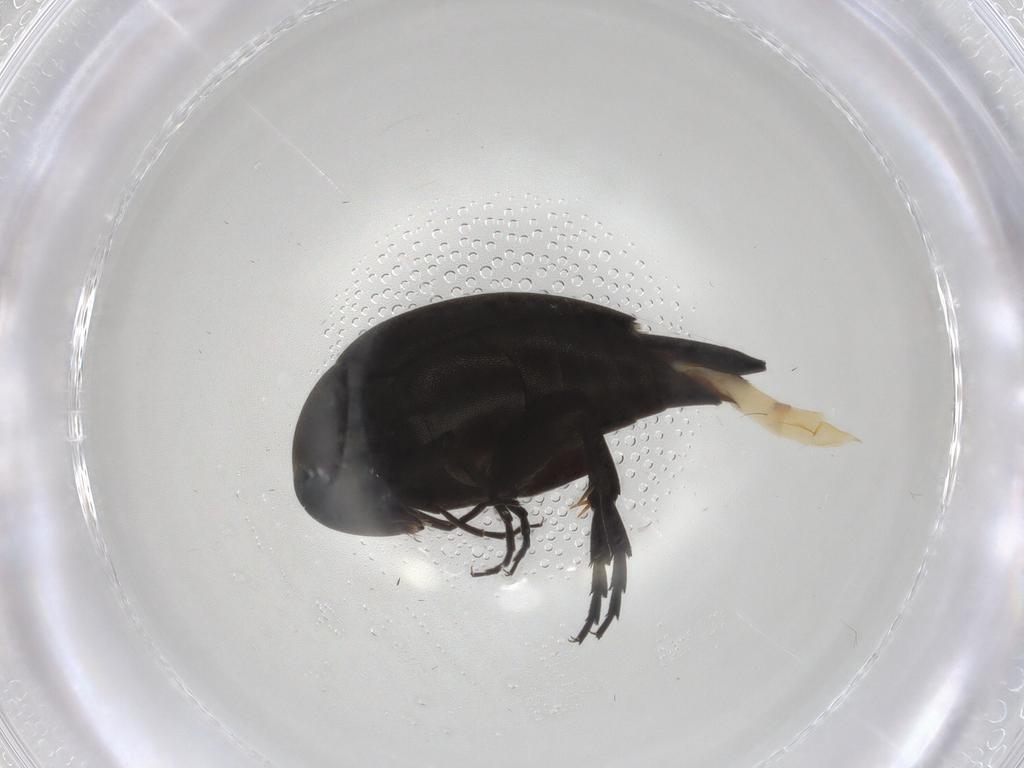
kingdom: Animalia
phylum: Arthropoda
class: Insecta
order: Coleoptera
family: Mordellidae
